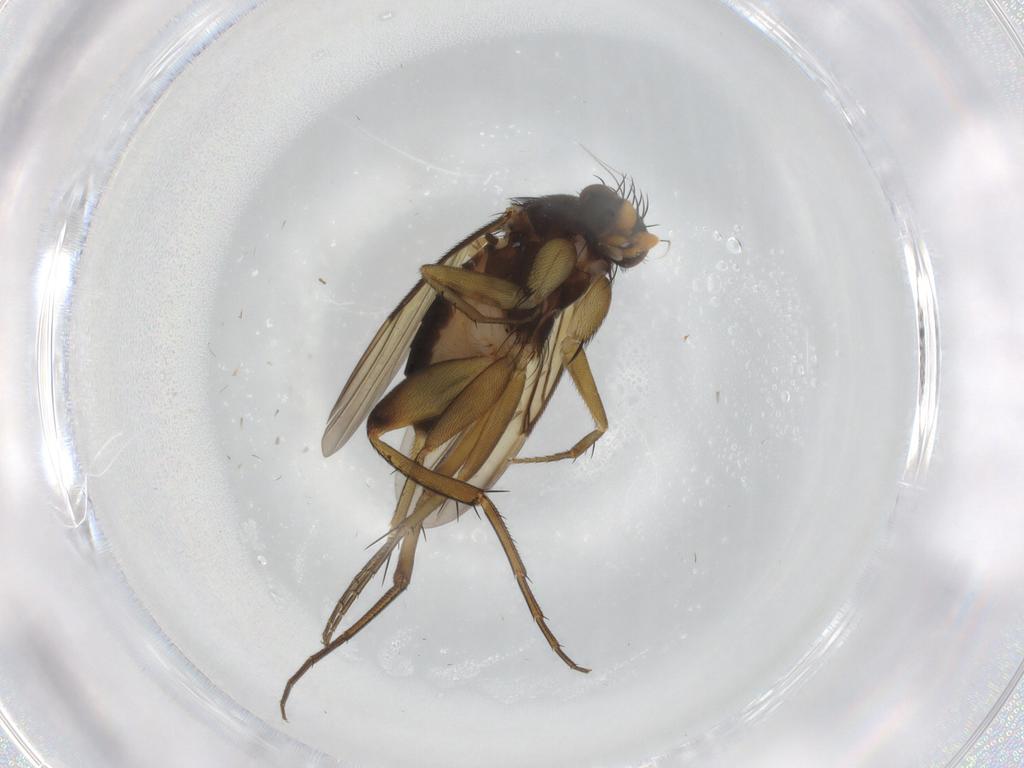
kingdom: Animalia
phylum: Arthropoda
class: Insecta
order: Diptera
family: Phoridae
